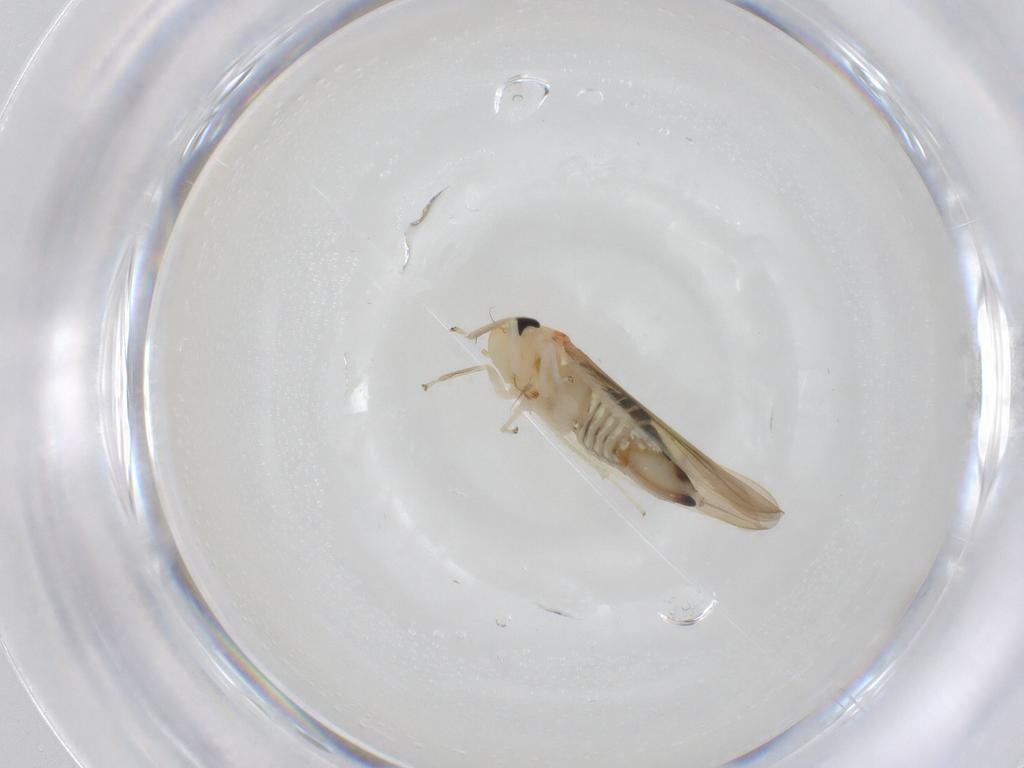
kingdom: Animalia
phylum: Arthropoda
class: Insecta
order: Hemiptera
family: Cicadellidae
